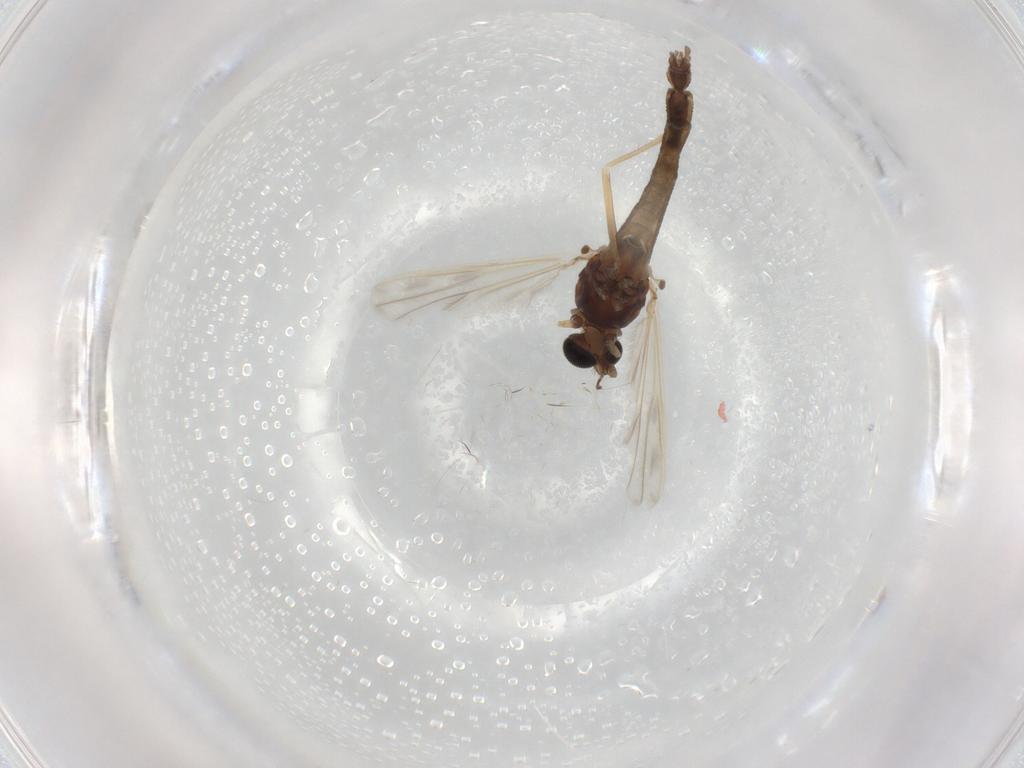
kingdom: Animalia
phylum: Arthropoda
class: Insecta
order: Diptera
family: Chironomidae
